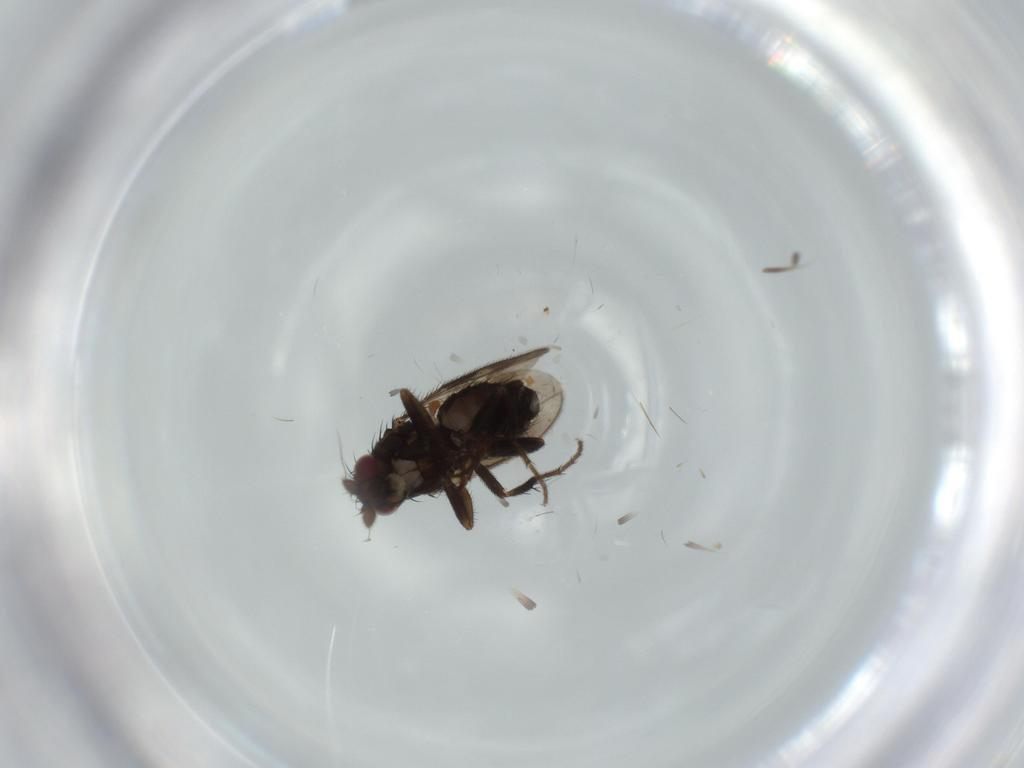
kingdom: Animalia
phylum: Arthropoda
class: Insecta
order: Diptera
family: Sphaeroceridae
